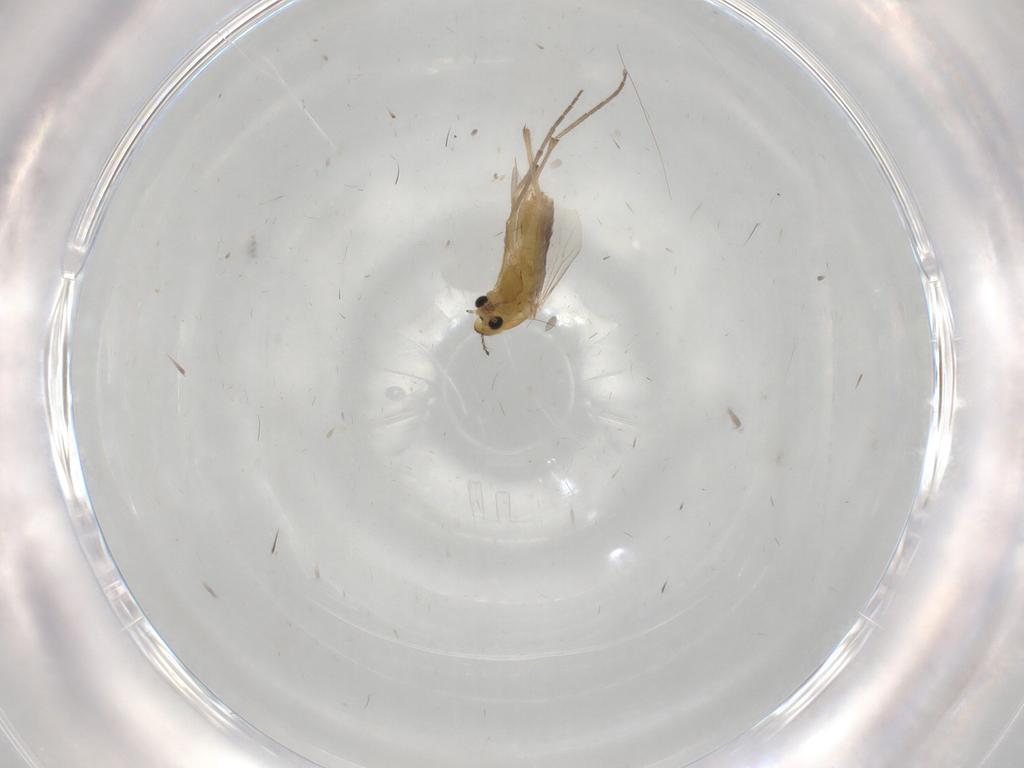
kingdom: Animalia
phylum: Arthropoda
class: Insecta
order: Diptera
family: Chironomidae
